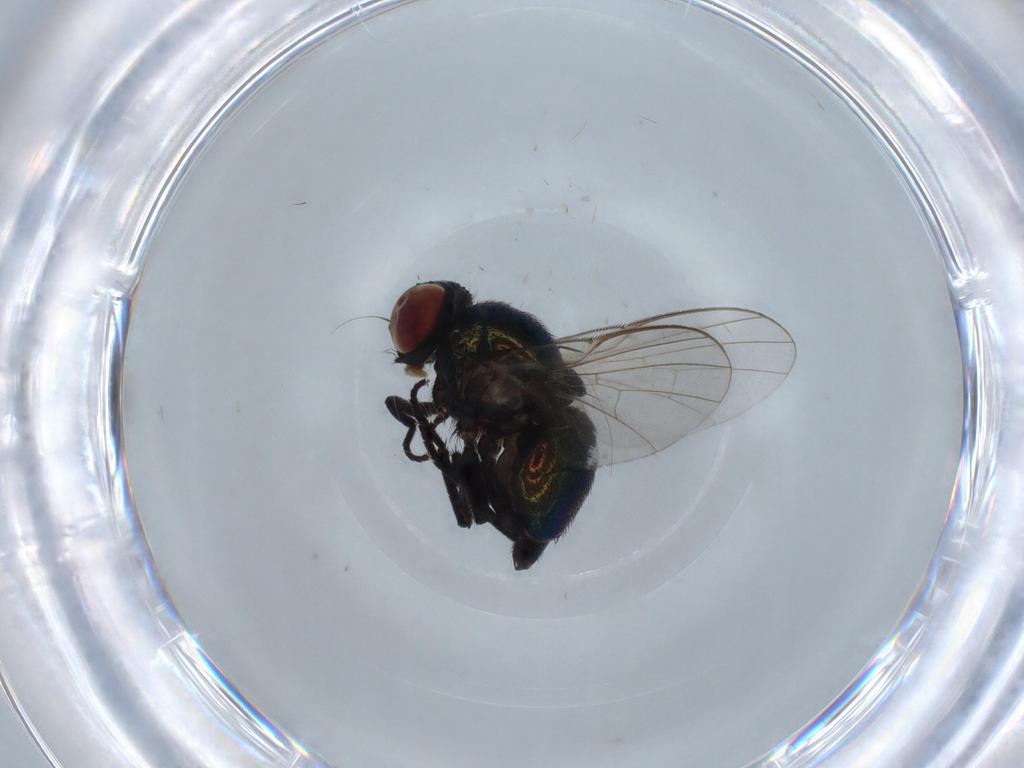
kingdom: Animalia
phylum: Arthropoda
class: Insecta
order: Diptera
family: Agromyzidae
